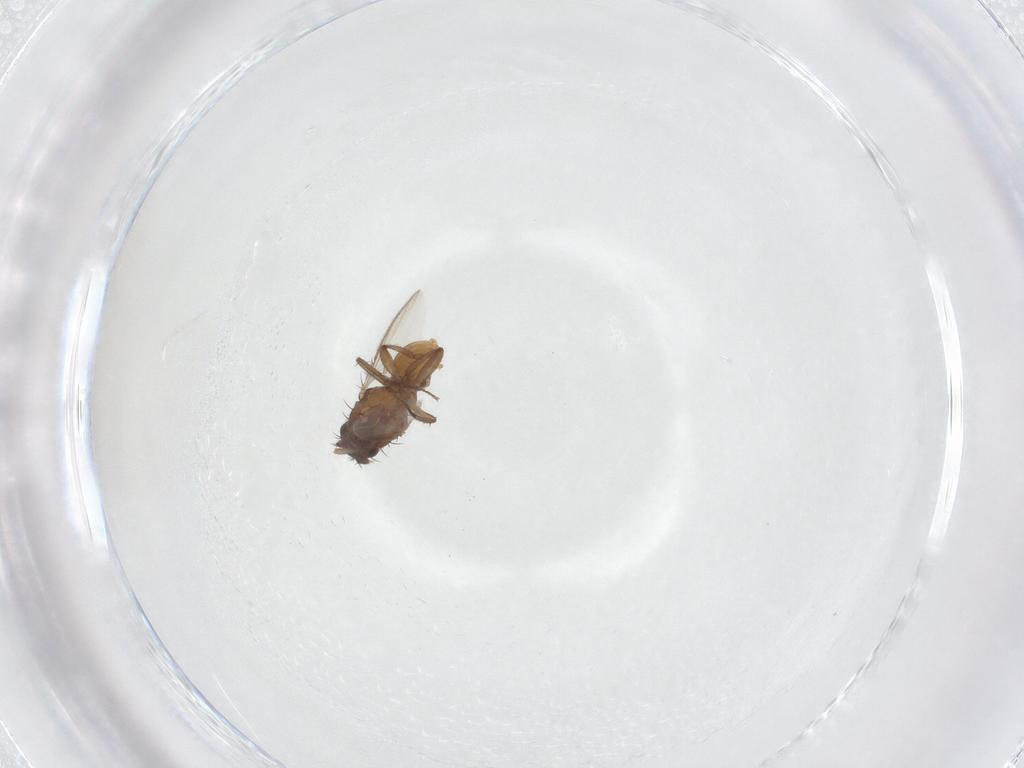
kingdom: Animalia
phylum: Arthropoda
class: Insecta
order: Diptera
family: Sphaeroceridae
